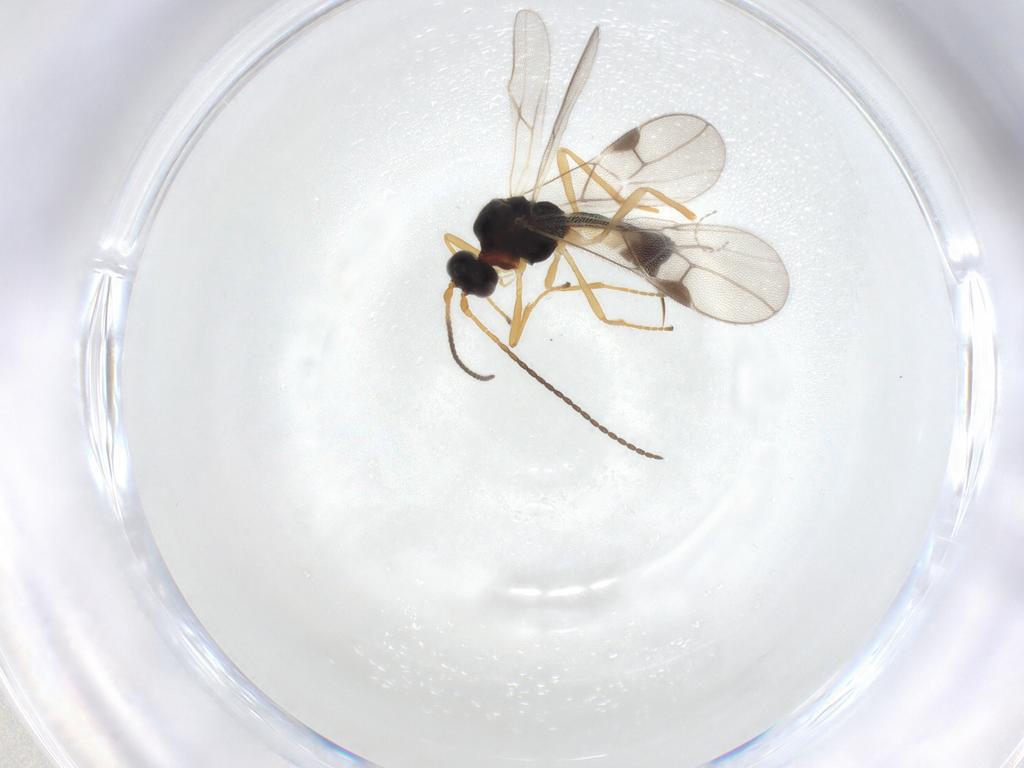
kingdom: Animalia
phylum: Arthropoda
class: Insecta
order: Hymenoptera
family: Braconidae
